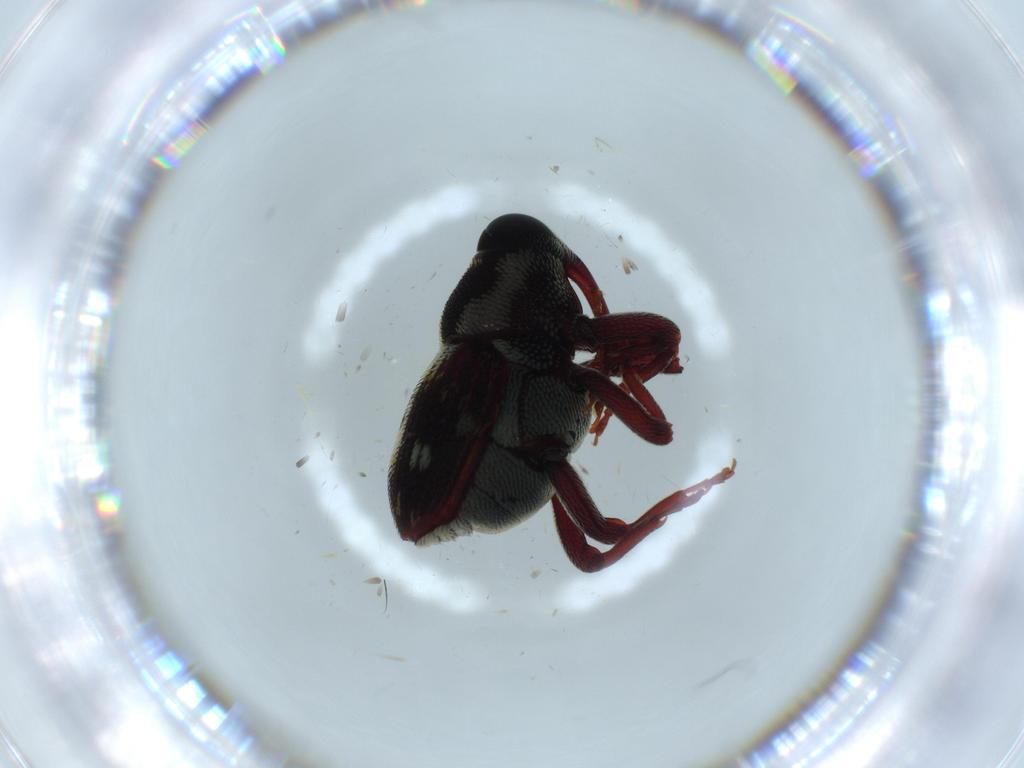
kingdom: Animalia
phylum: Arthropoda
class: Insecta
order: Coleoptera
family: Curculionidae
